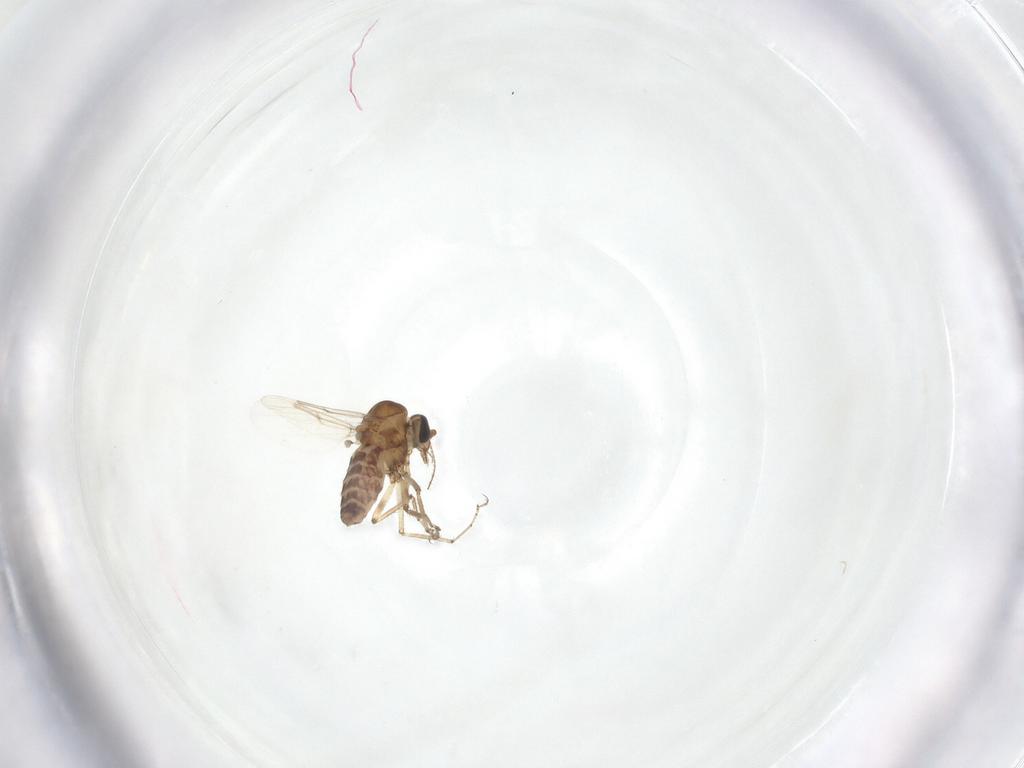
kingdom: Animalia
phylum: Arthropoda
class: Insecta
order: Diptera
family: Ceratopogonidae
